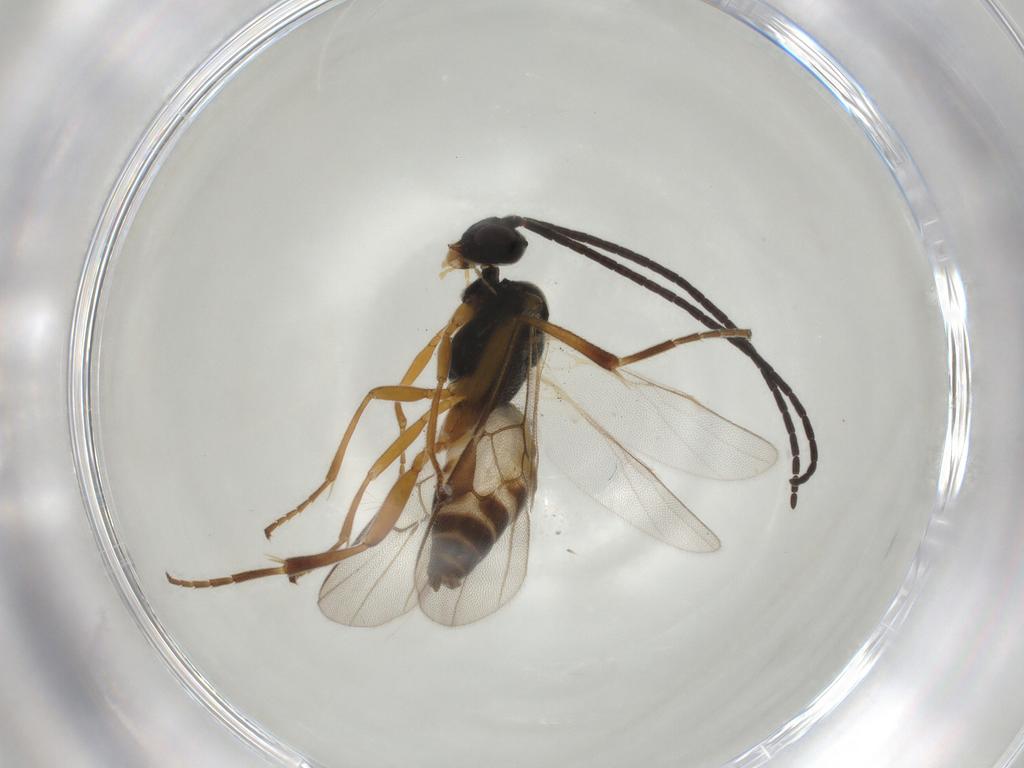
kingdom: Animalia
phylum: Arthropoda
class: Insecta
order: Hymenoptera
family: Braconidae
